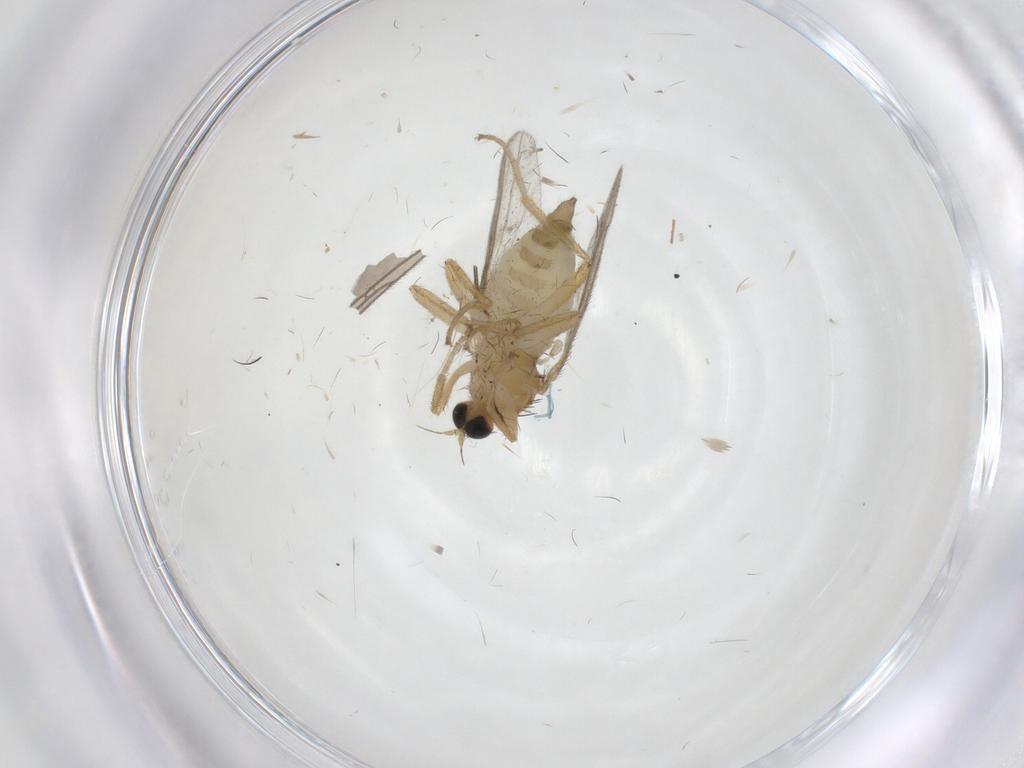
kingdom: Animalia
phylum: Arthropoda
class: Insecta
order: Diptera
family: Hybotidae
